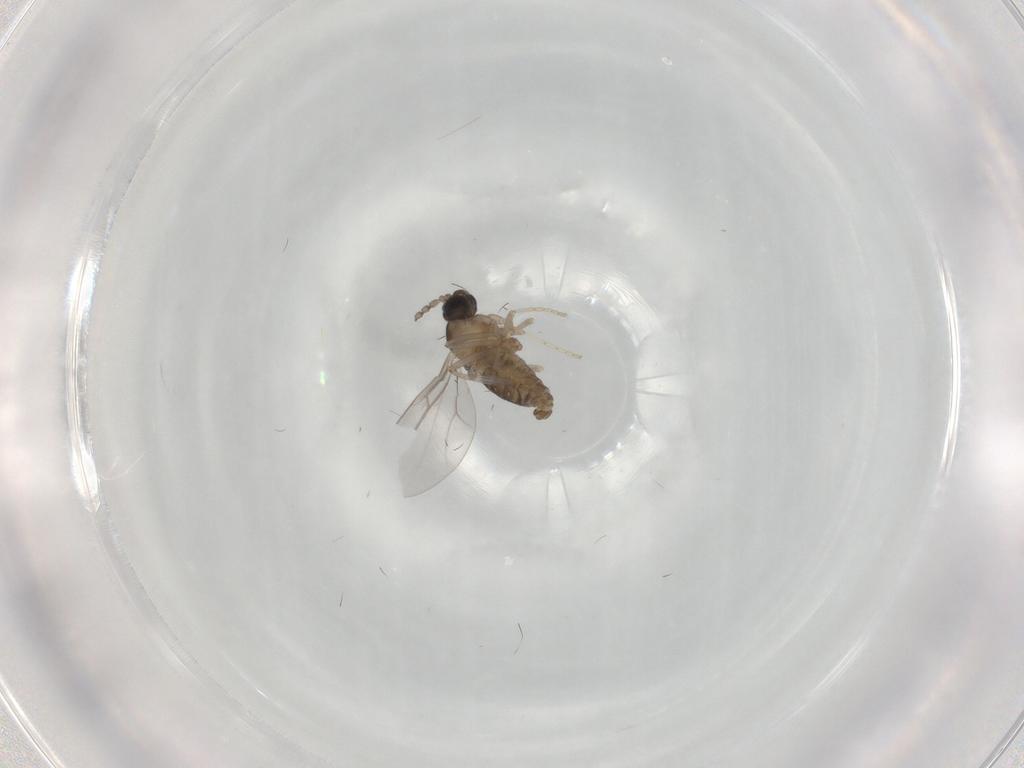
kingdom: Animalia
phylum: Arthropoda
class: Insecta
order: Diptera
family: Cecidomyiidae
